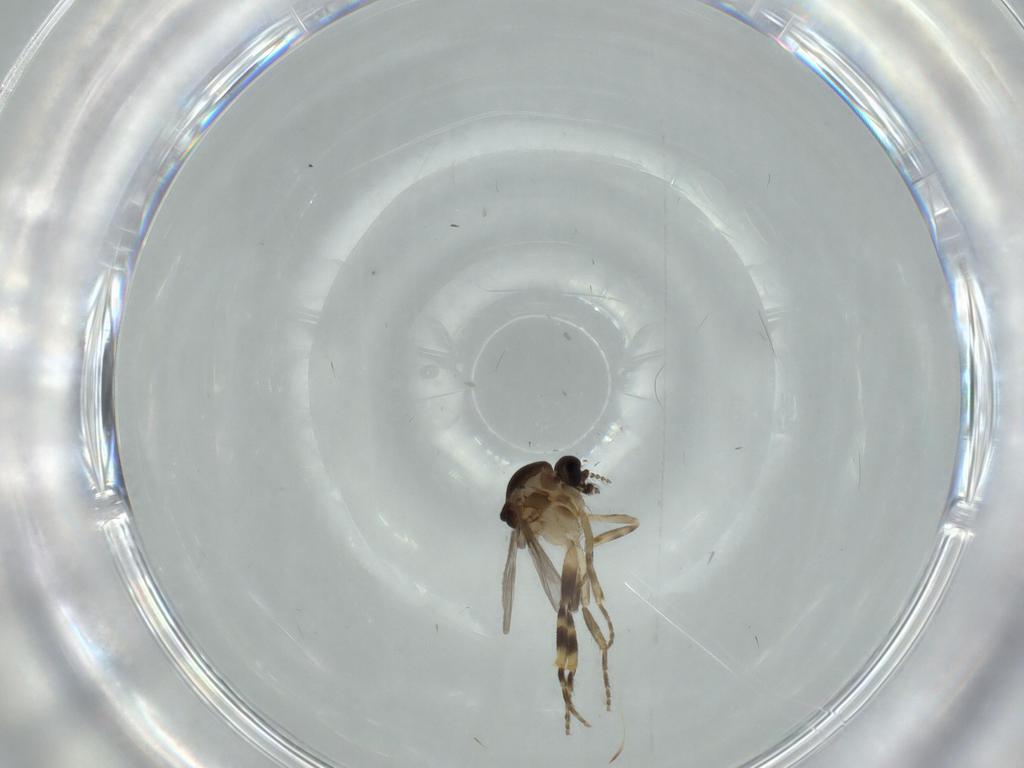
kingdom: Animalia
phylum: Arthropoda
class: Insecta
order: Diptera
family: Ceratopogonidae
